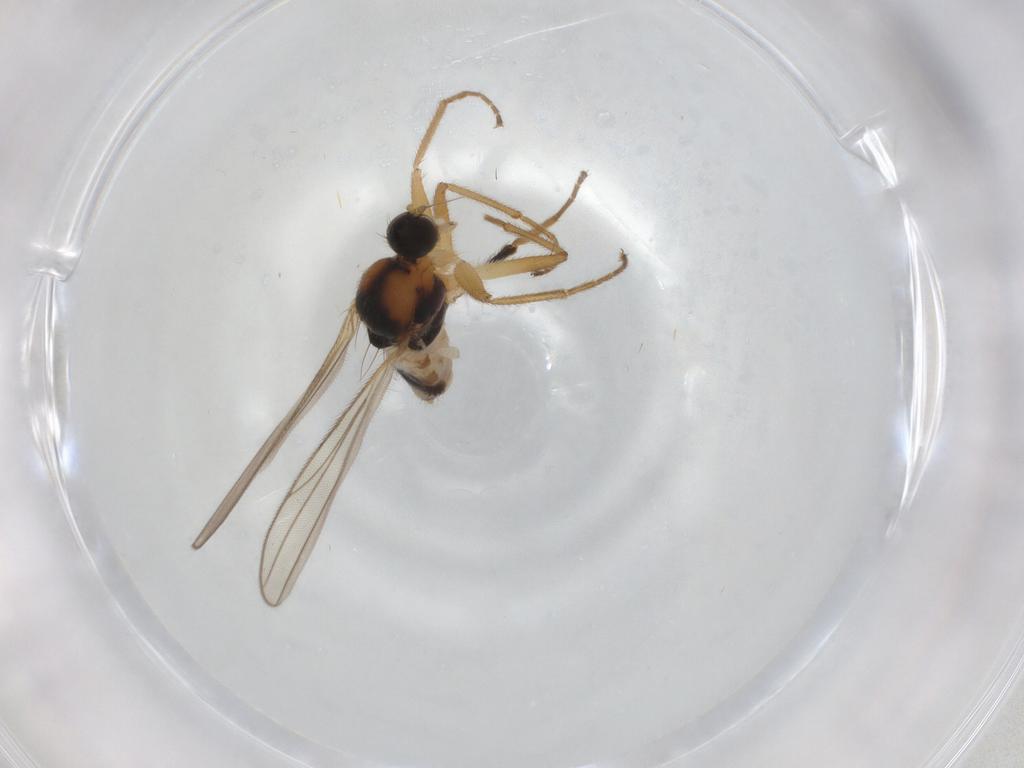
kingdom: Animalia
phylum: Arthropoda
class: Insecta
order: Diptera
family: Hybotidae
